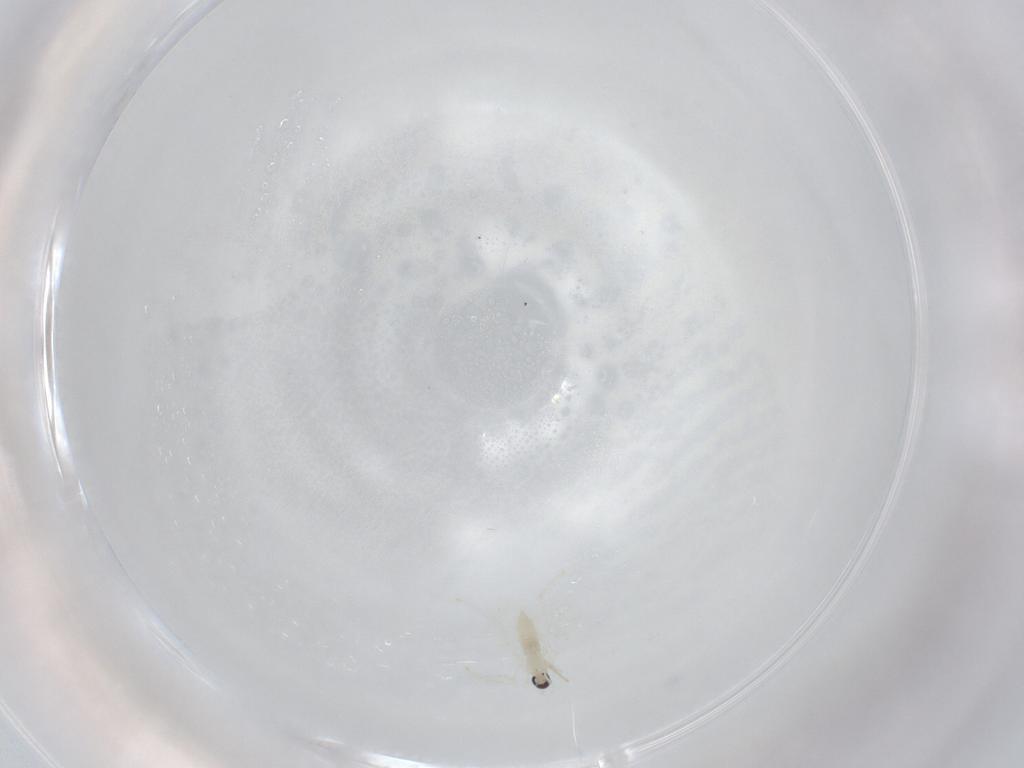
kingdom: Animalia
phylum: Arthropoda
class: Insecta
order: Diptera
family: Cecidomyiidae
